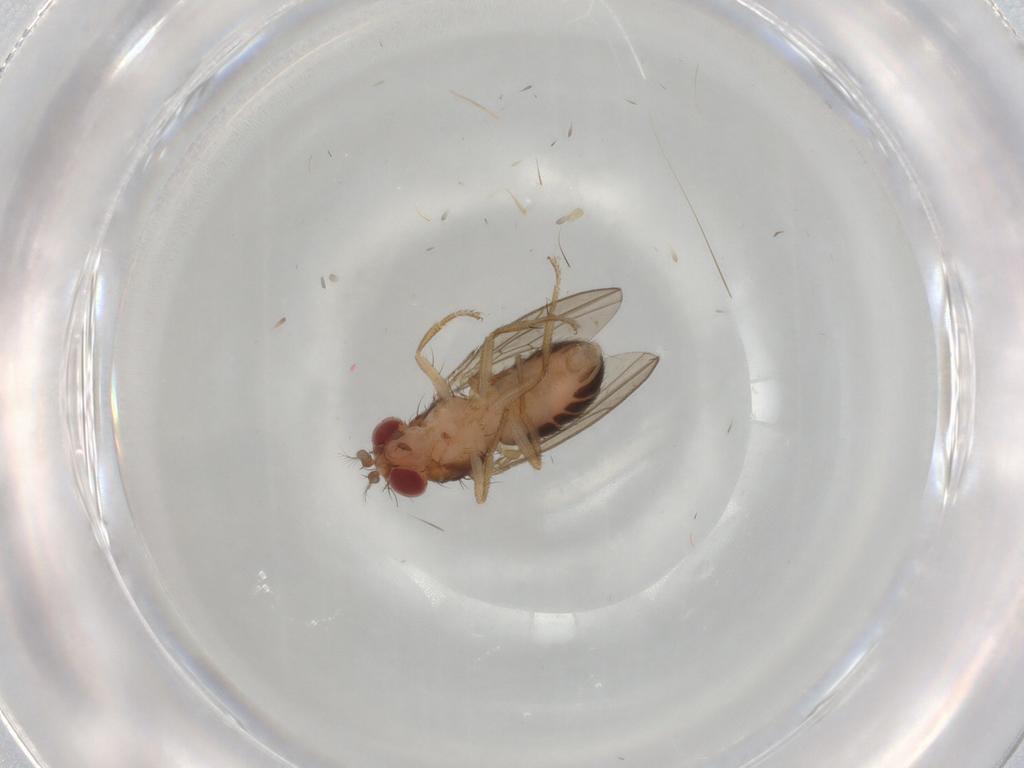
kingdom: Animalia
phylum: Arthropoda
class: Insecta
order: Diptera
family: Drosophilidae
